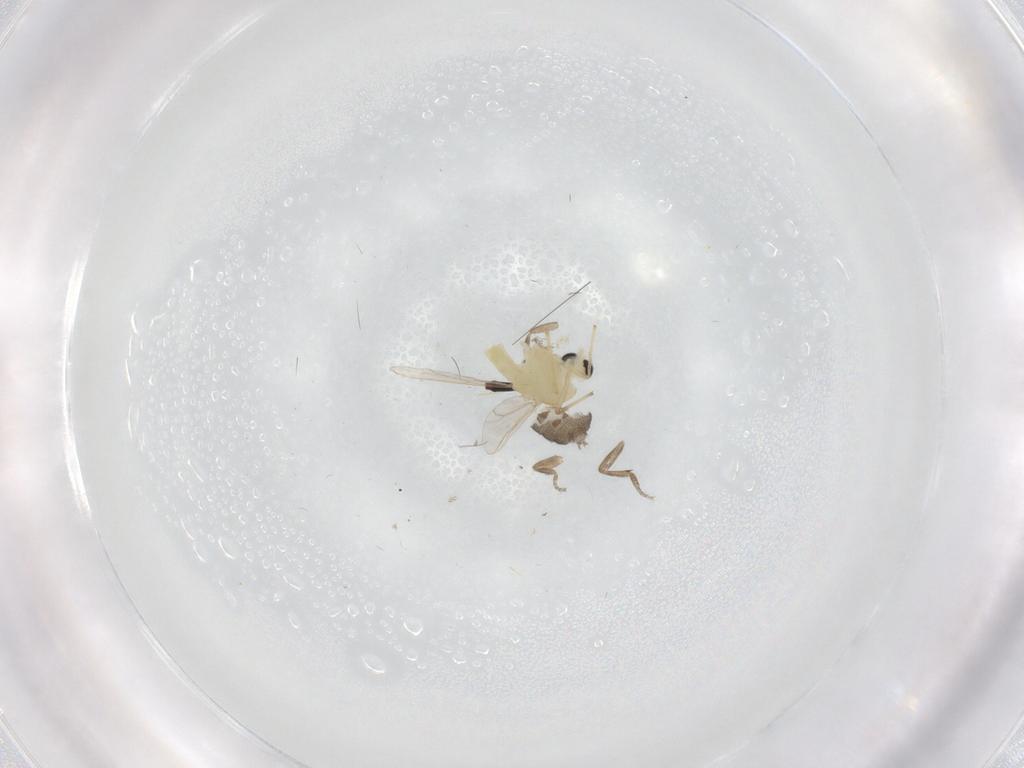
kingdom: Animalia
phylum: Arthropoda
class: Insecta
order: Diptera
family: Chironomidae
